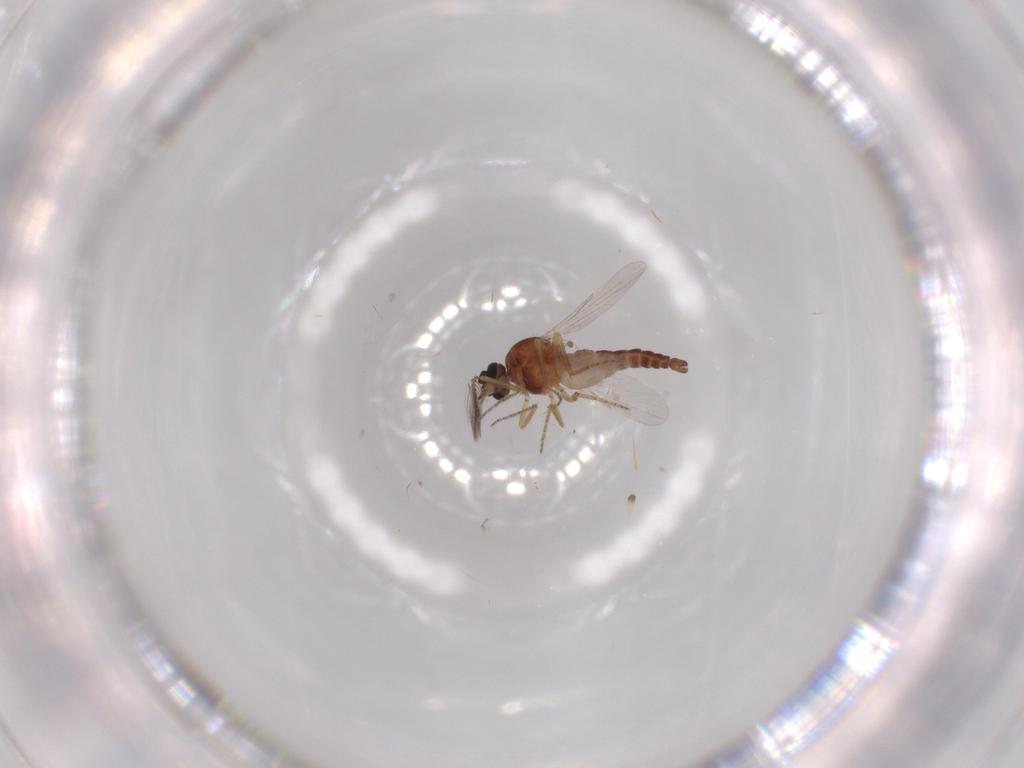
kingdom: Animalia
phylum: Arthropoda
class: Insecta
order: Diptera
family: Ceratopogonidae
